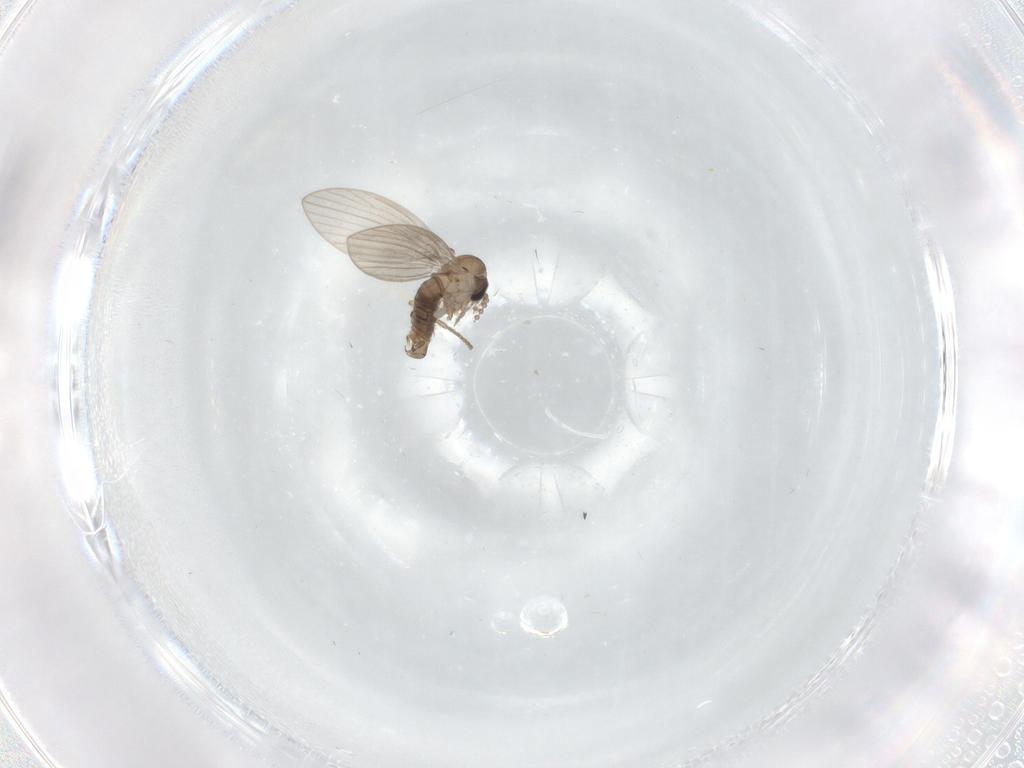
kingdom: Animalia
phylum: Arthropoda
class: Insecta
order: Diptera
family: Psychodidae
